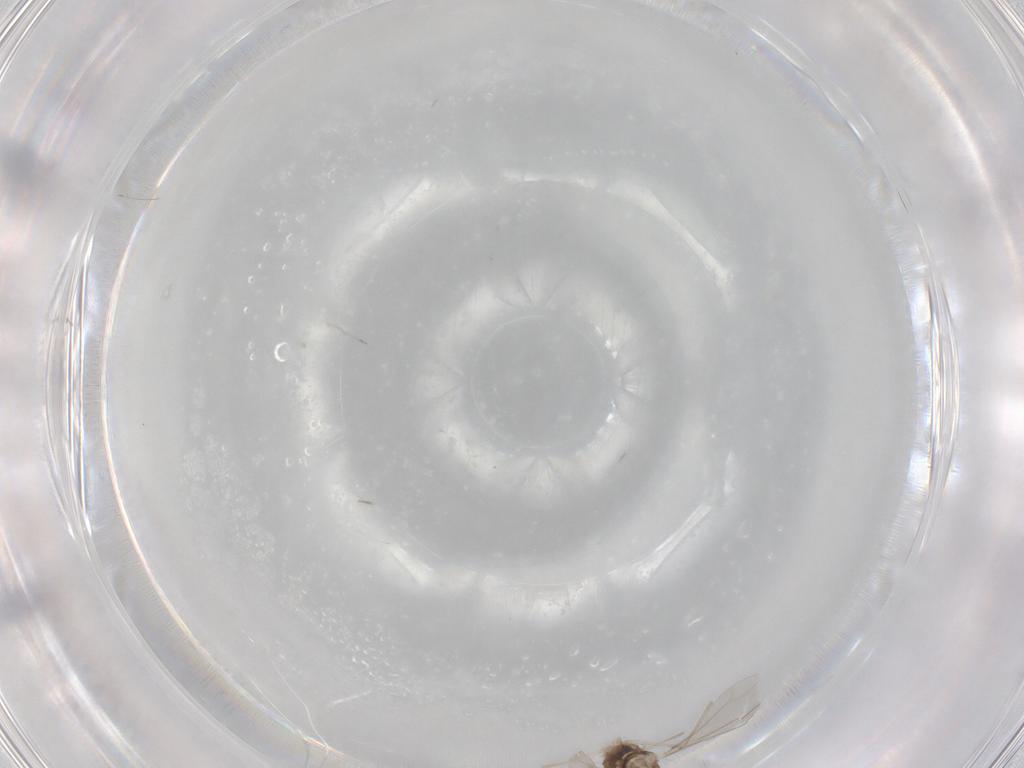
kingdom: Animalia
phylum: Arthropoda
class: Insecta
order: Diptera
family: Cecidomyiidae
